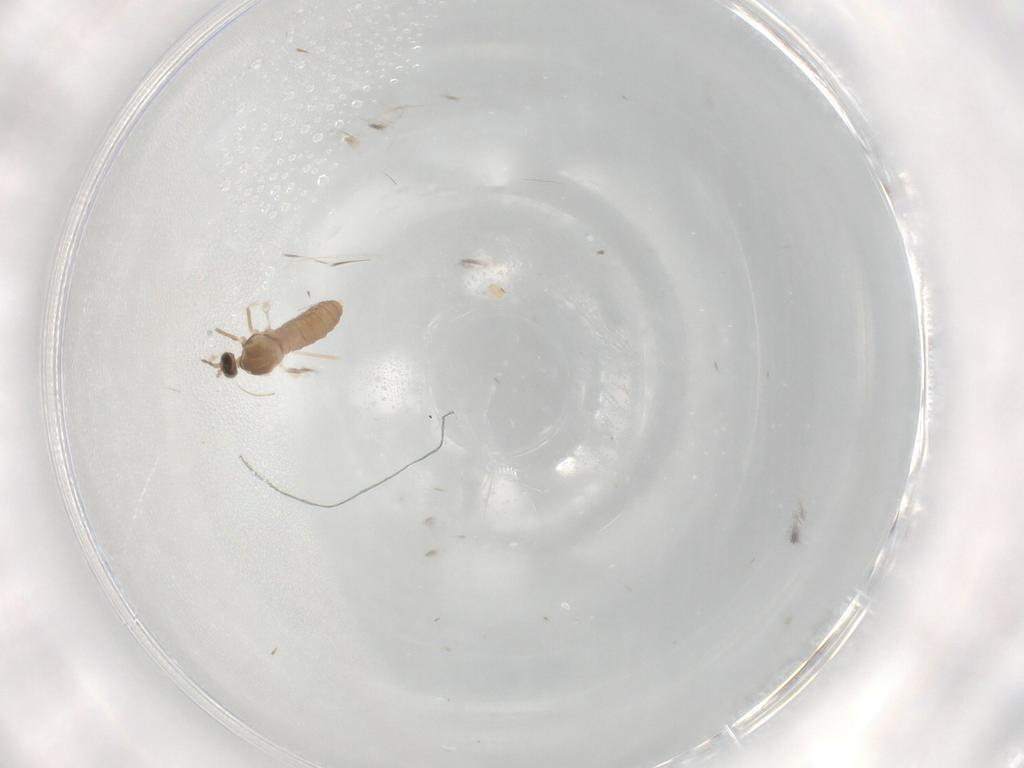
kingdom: Animalia
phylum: Arthropoda
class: Insecta
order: Diptera
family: Cecidomyiidae
